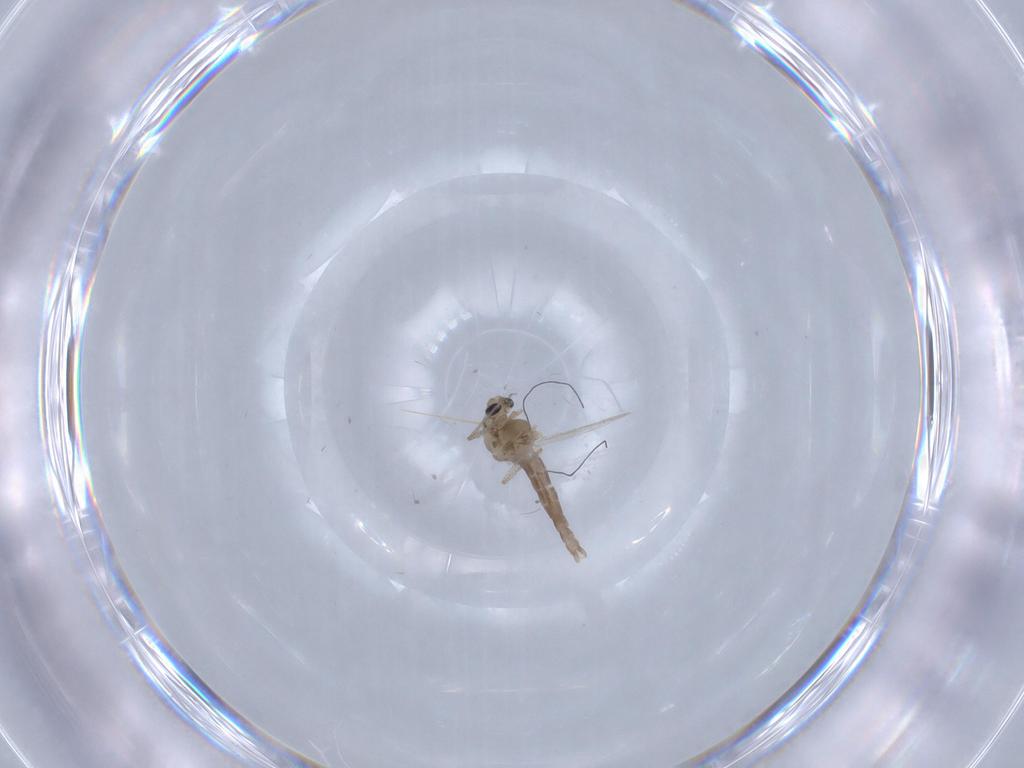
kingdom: Animalia
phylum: Arthropoda
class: Insecta
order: Diptera
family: Chironomidae
